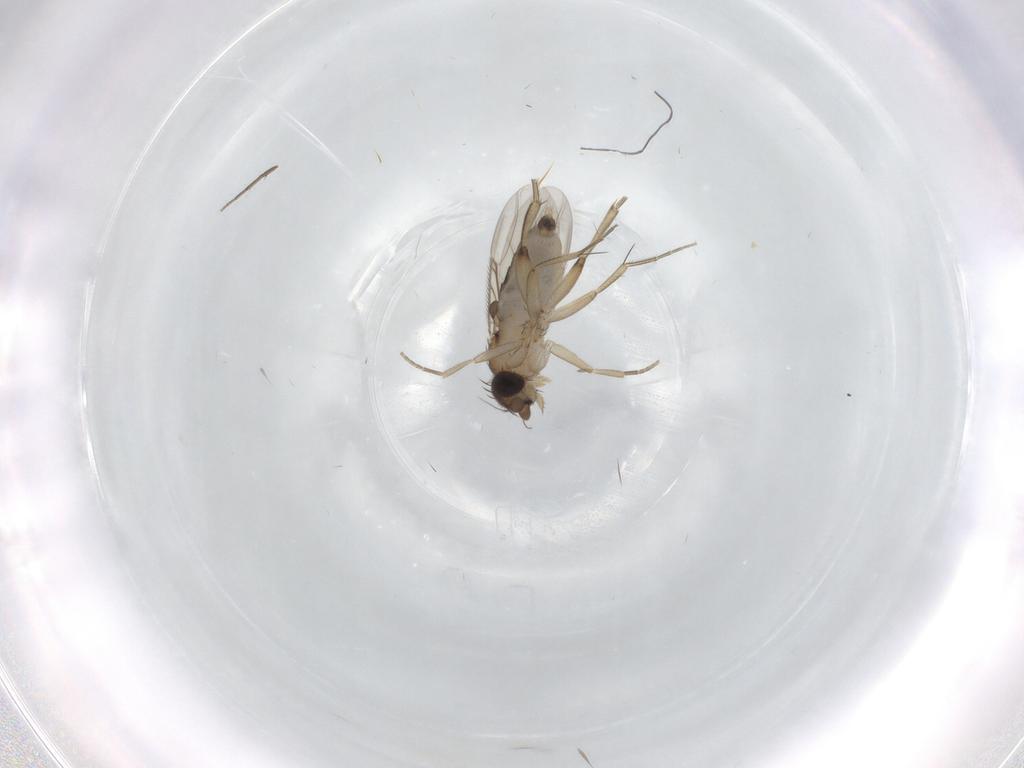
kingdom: Animalia
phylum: Arthropoda
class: Insecta
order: Diptera
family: Phoridae
